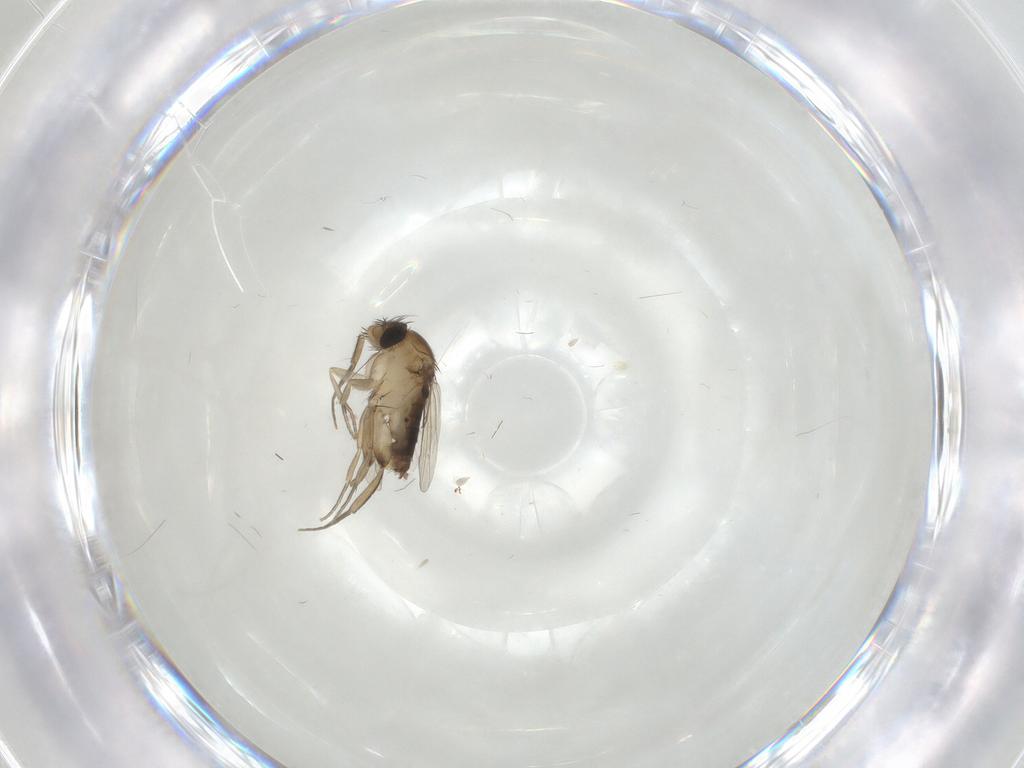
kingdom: Animalia
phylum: Arthropoda
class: Insecta
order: Diptera
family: Phoridae
